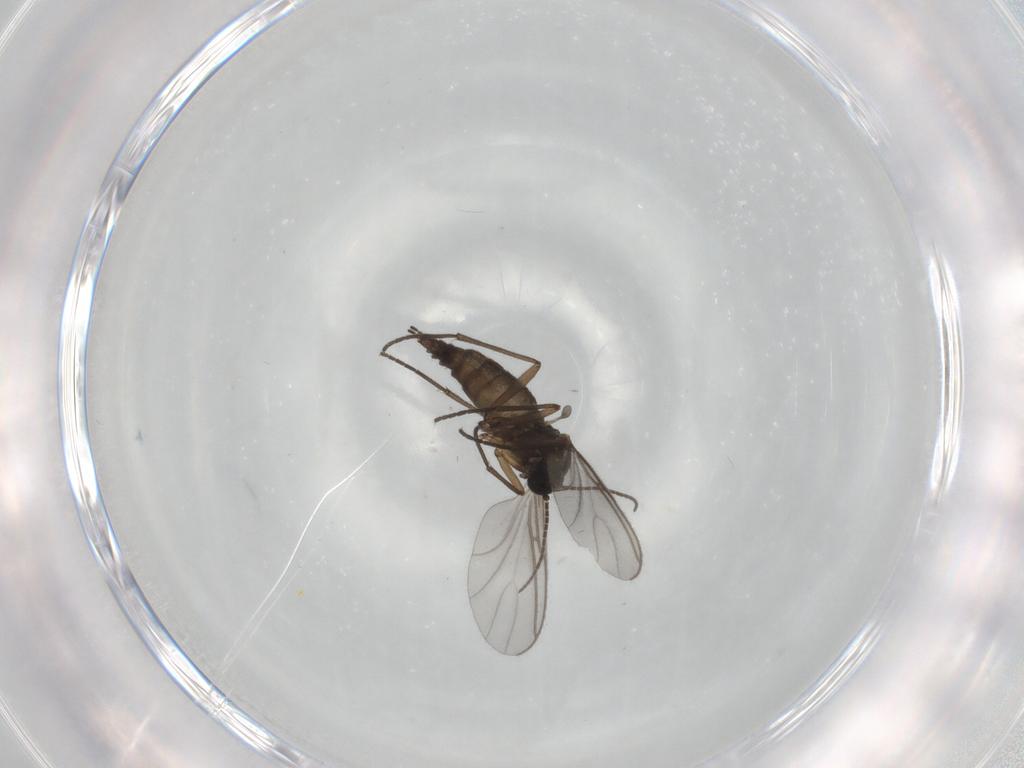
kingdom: Animalia
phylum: Arthropoda
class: Insecta
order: Diptera
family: Sciaridae
